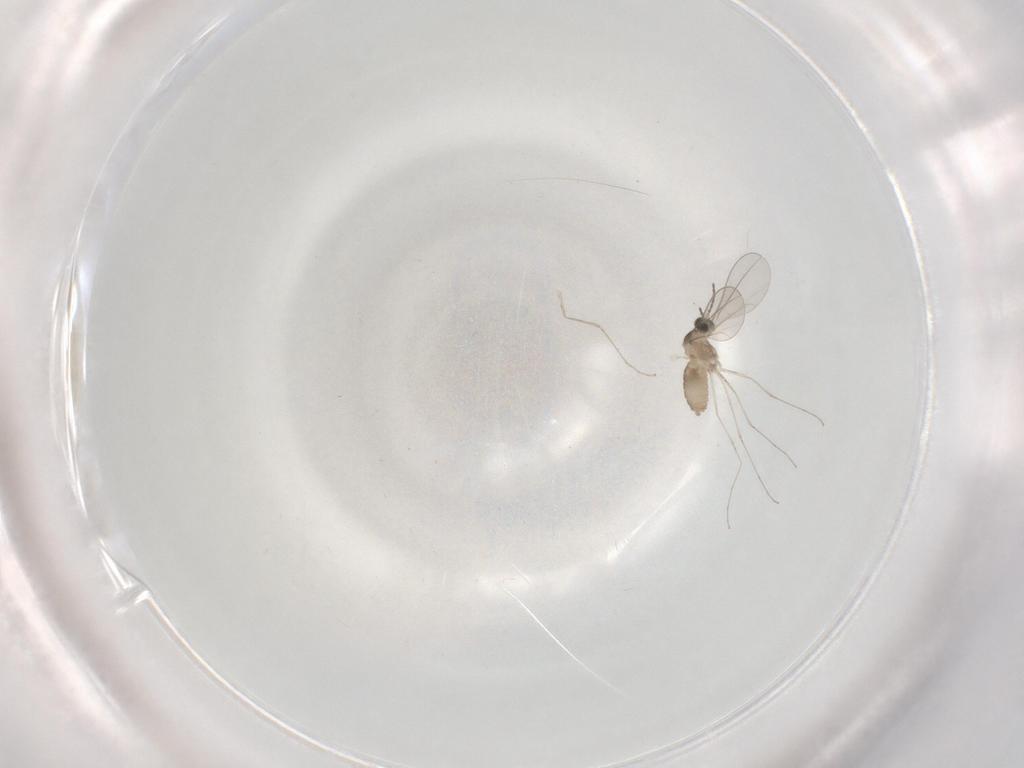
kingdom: Animalia
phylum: Arthropoda
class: Insecta
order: Diptera
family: Cecidomyiidae
